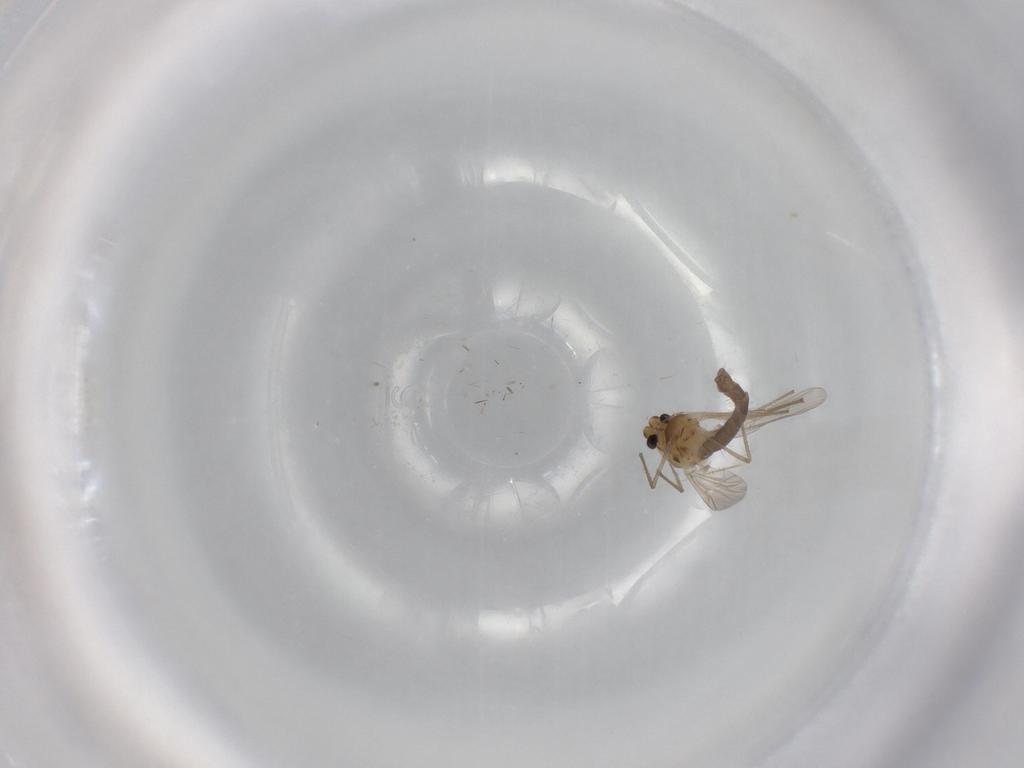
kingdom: Animalia
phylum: Arthropoda
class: Insecta
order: Diptera
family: Chironomidae
